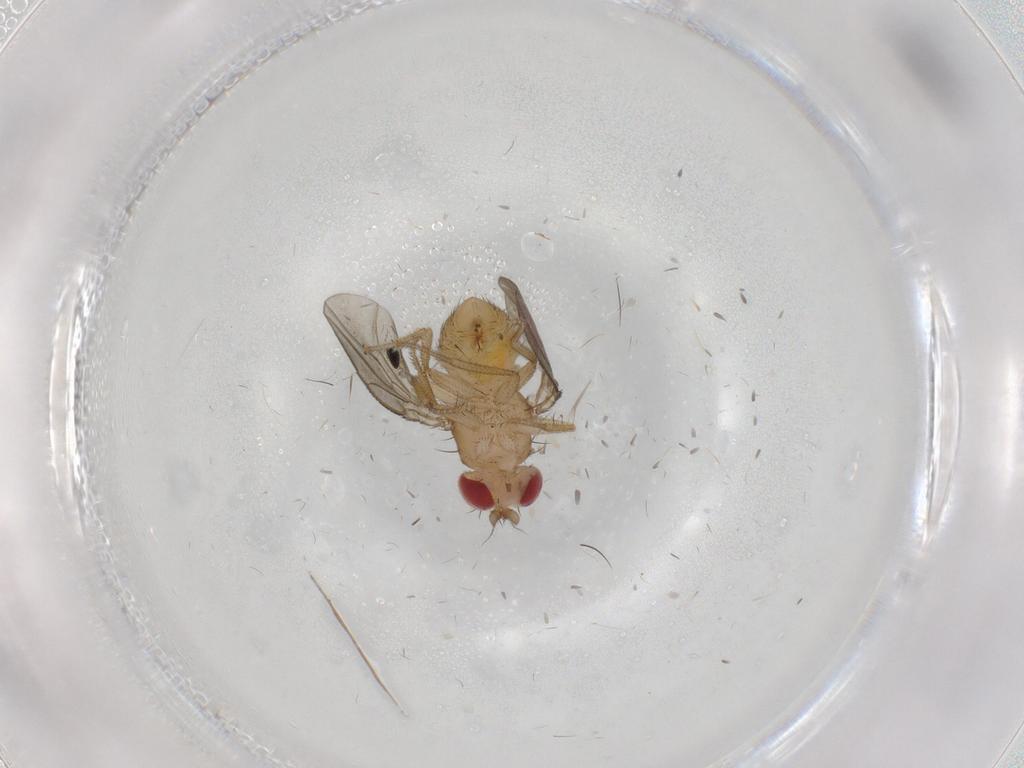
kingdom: Animalia
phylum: Arthropoda
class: Insecta
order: Diptera
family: Drosophilidae
